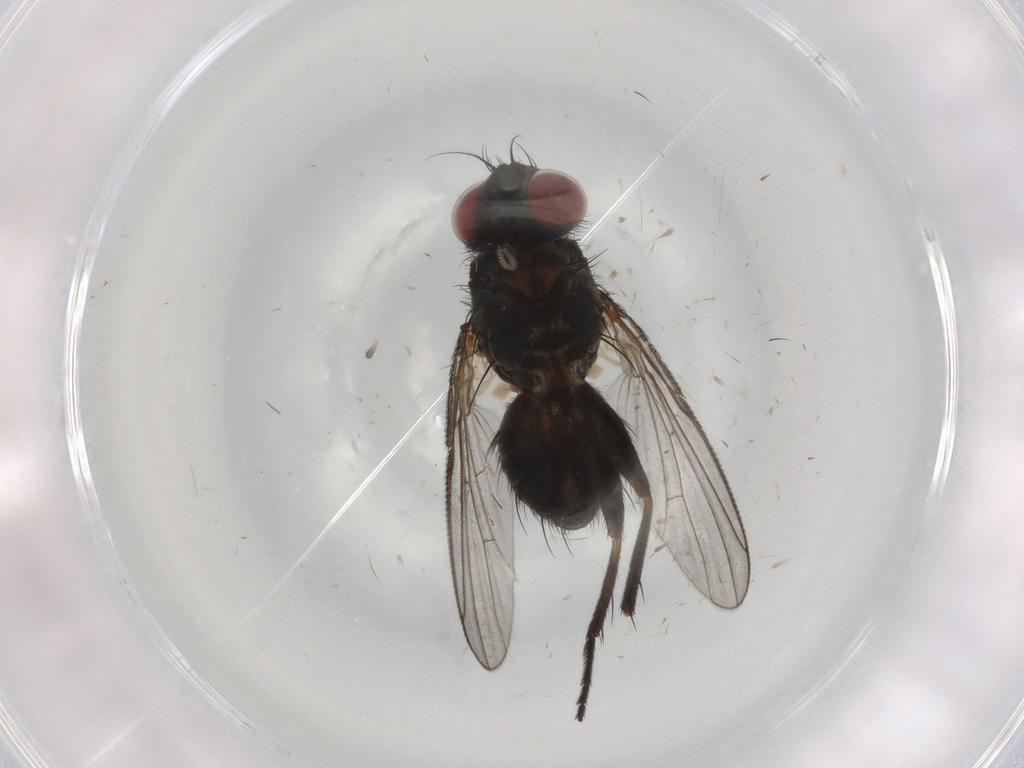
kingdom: Animalia
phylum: Arthropoda
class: Insecta
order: Diptera
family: Muscidae
